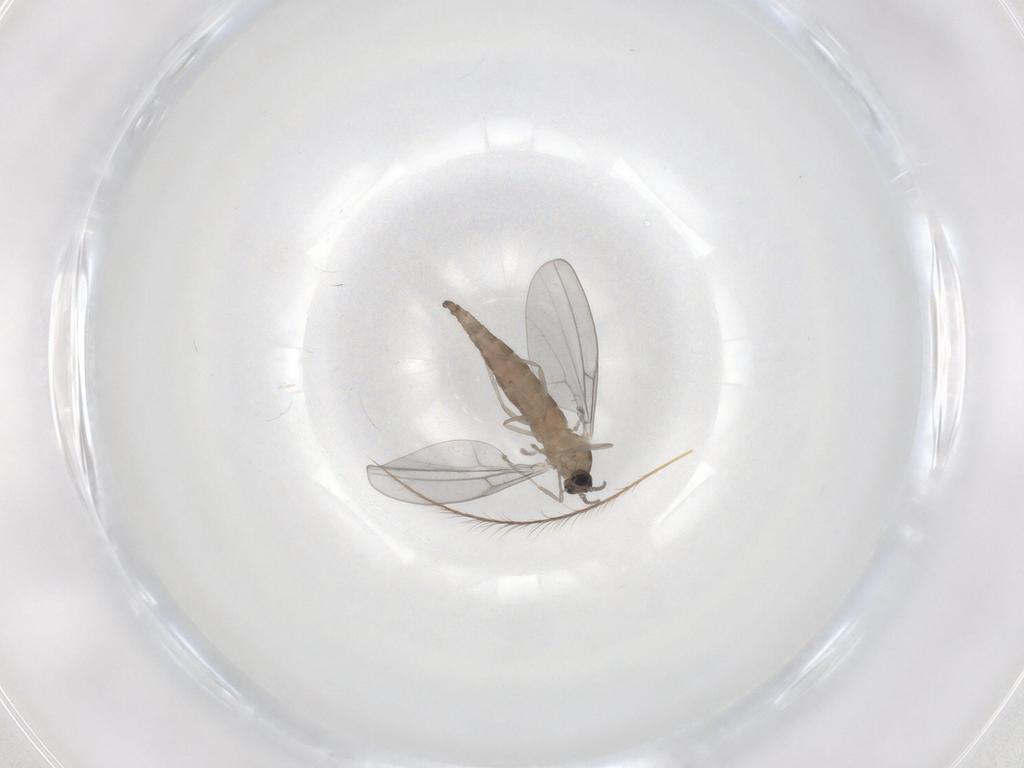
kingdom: Animalia
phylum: Arthropoda
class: Insecta
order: Diptera
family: Cecidomyiidae
